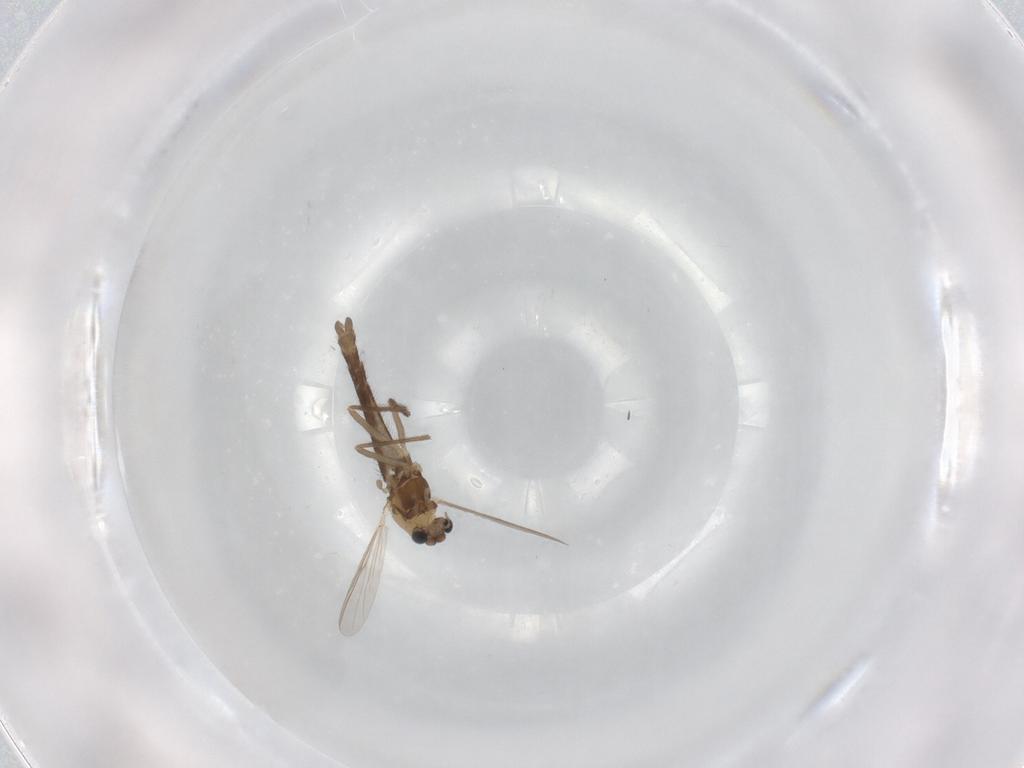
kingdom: Animalia
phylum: Arthropoda
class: Insecta
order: Diptera
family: Chironomidae
